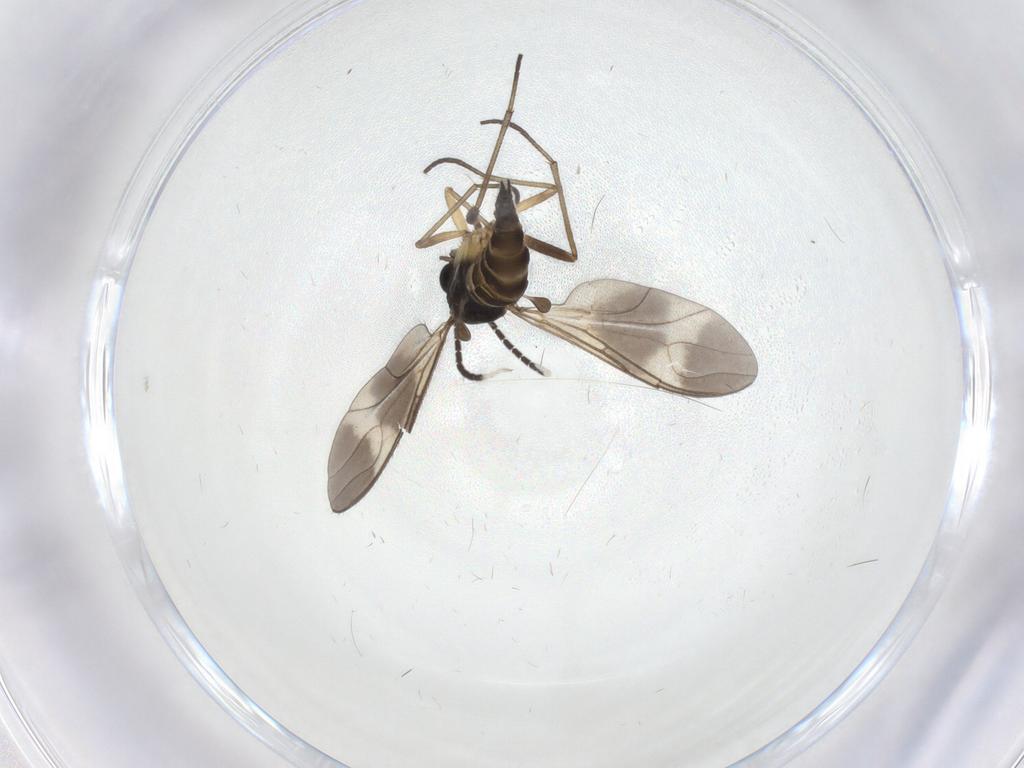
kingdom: Animalia
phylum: Arthropoda
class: Insecta
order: Diptera
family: Sciaridae
